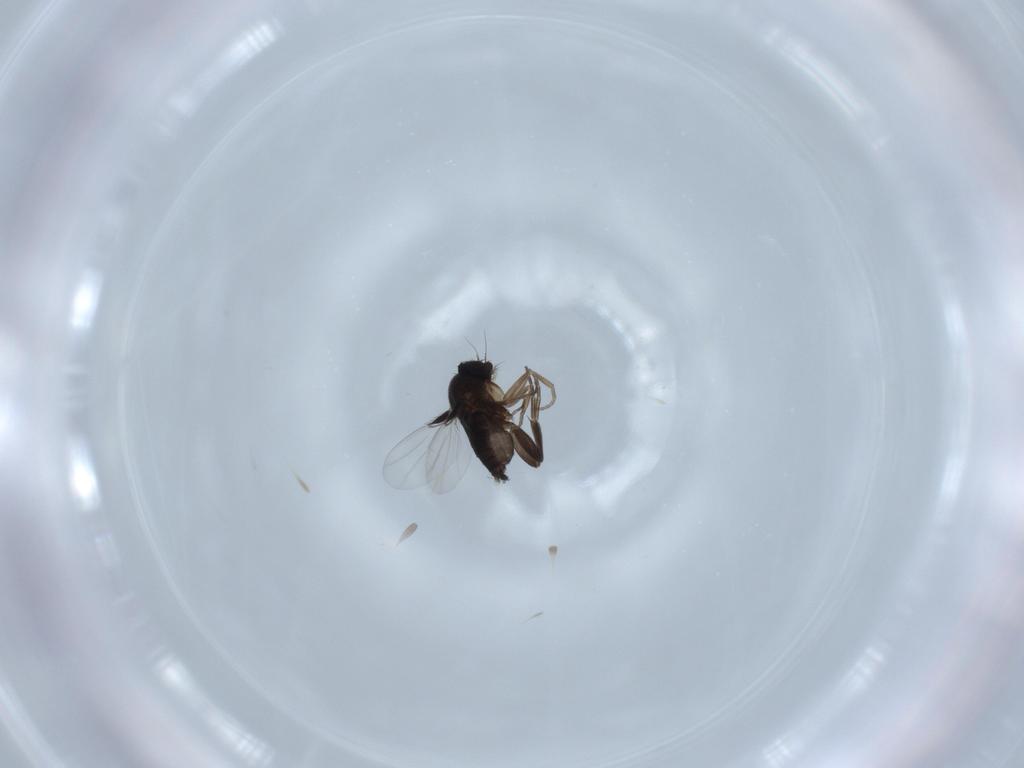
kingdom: Animalia
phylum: Arthropoda
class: Insecta
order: Diptera
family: Phoridae
